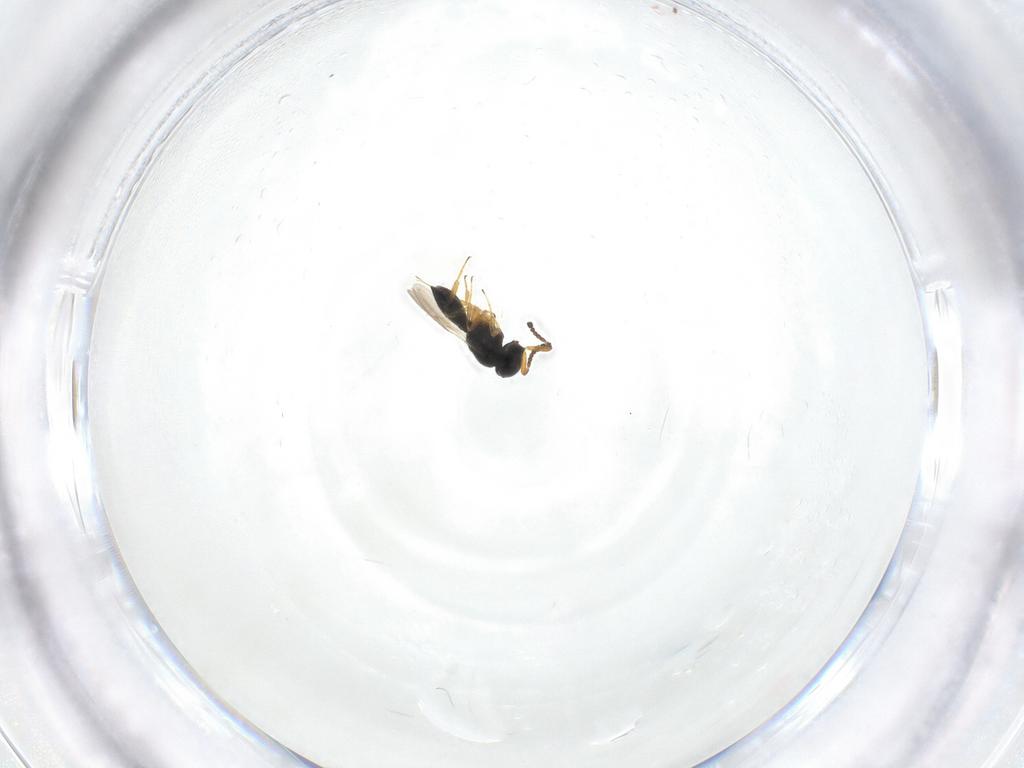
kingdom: Animalia
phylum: Arthropoda
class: Insecta
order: Hymenoptera
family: Scelionidae
